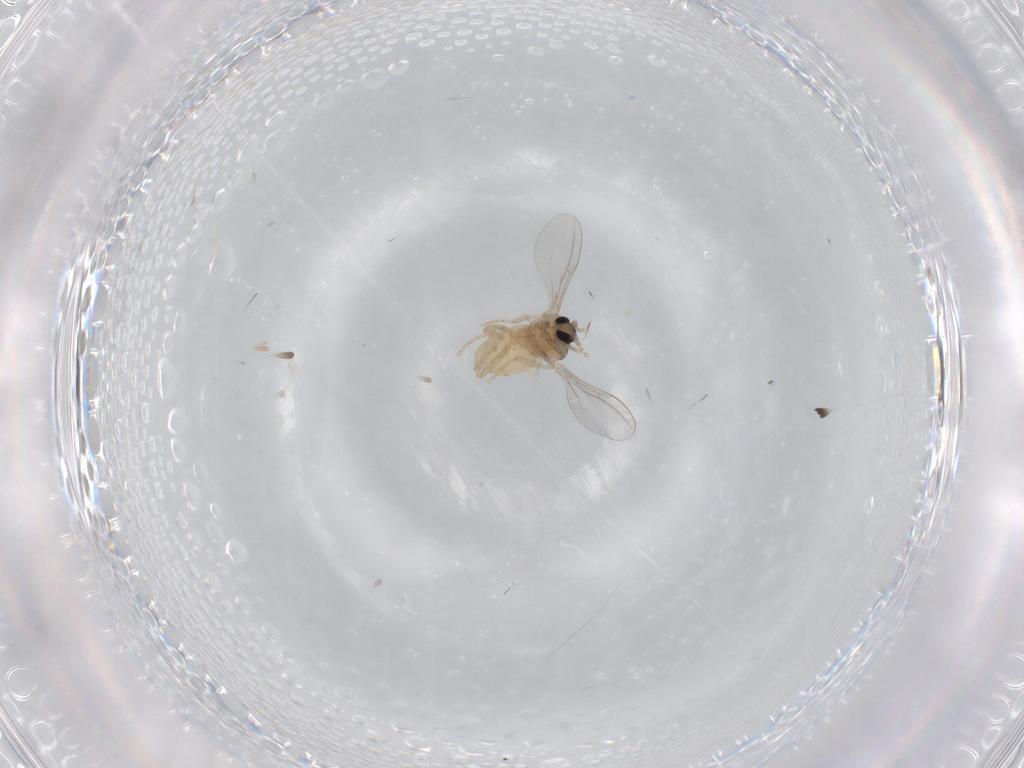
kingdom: Animalia
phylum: Arthropoda
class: Insecta
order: Diptera
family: Cecidomyiidae
